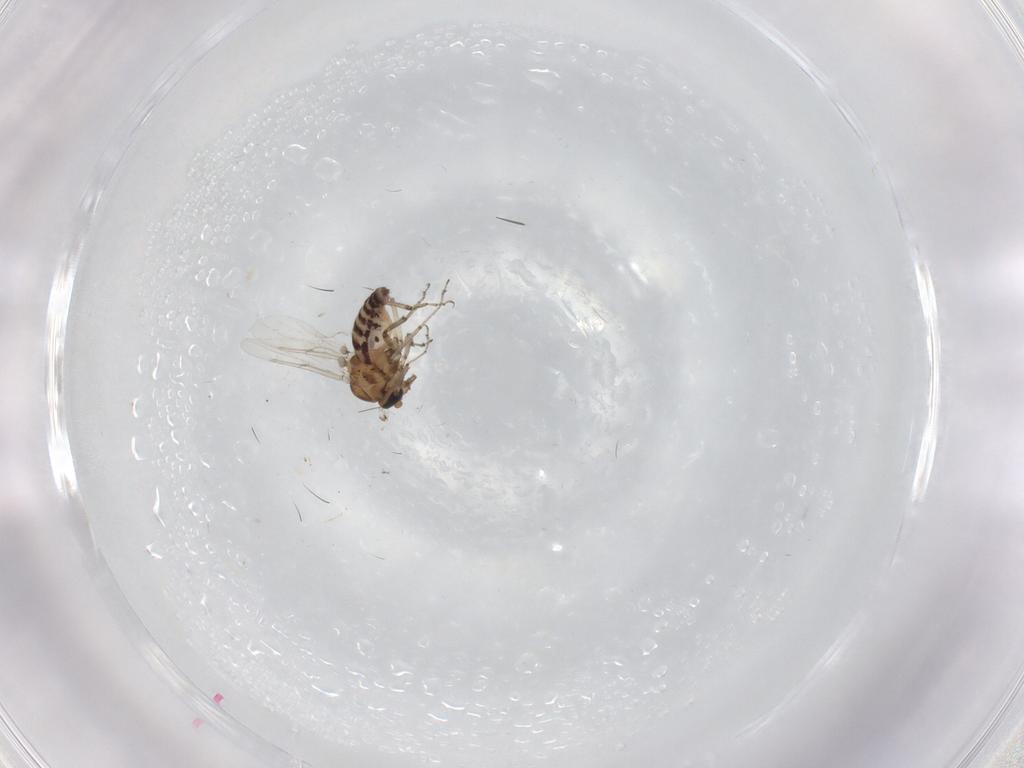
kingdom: Animalia
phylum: Arthropoda
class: Insecta
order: Diptera
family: Ceratopogonidae
